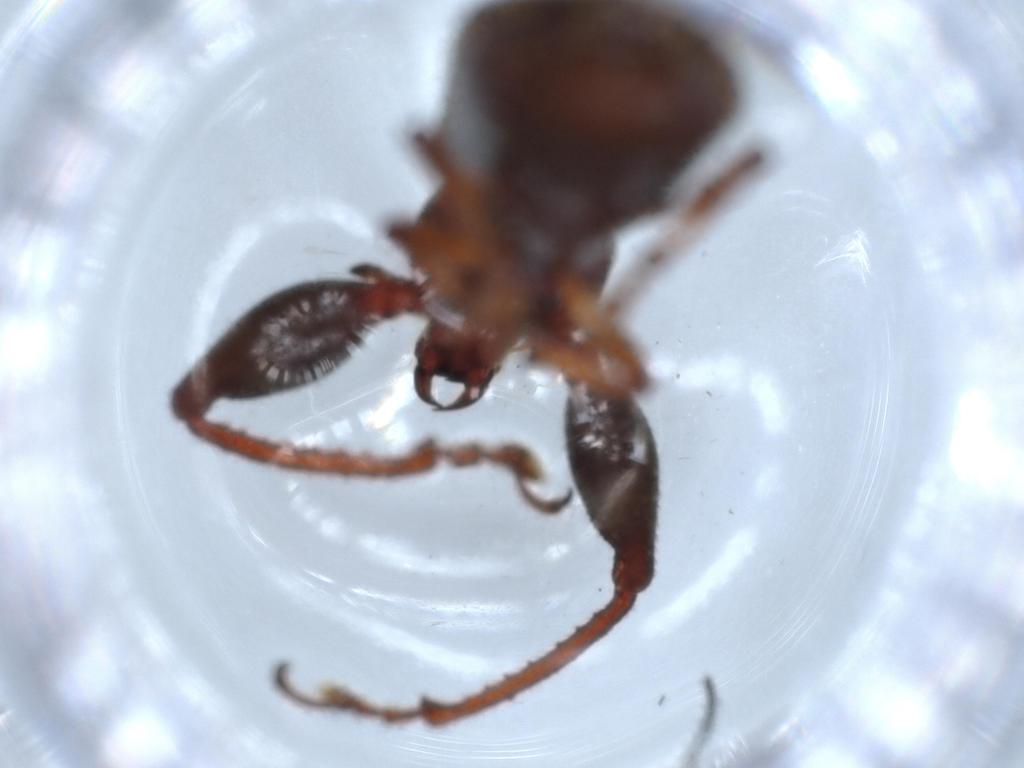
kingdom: Animalia
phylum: Arthropoda
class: Insecta
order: Coleoptera
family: Curculionidae
